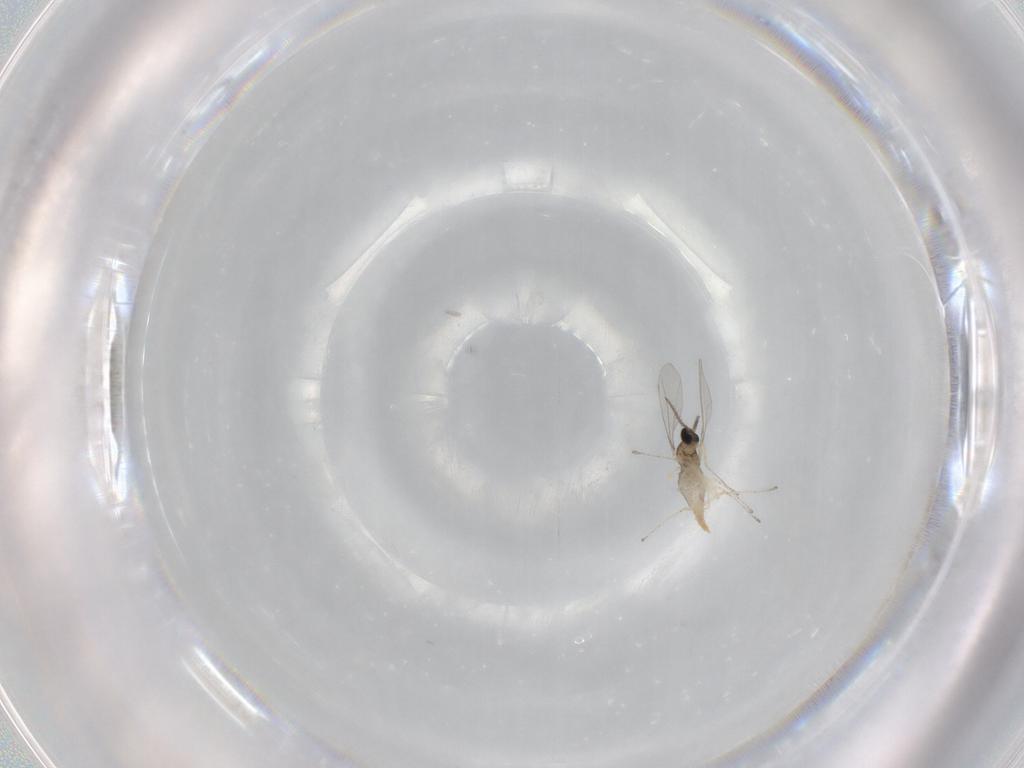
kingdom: Animalia
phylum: Arthropoda
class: Insecta
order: Diptera
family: Cecidomyiidae
